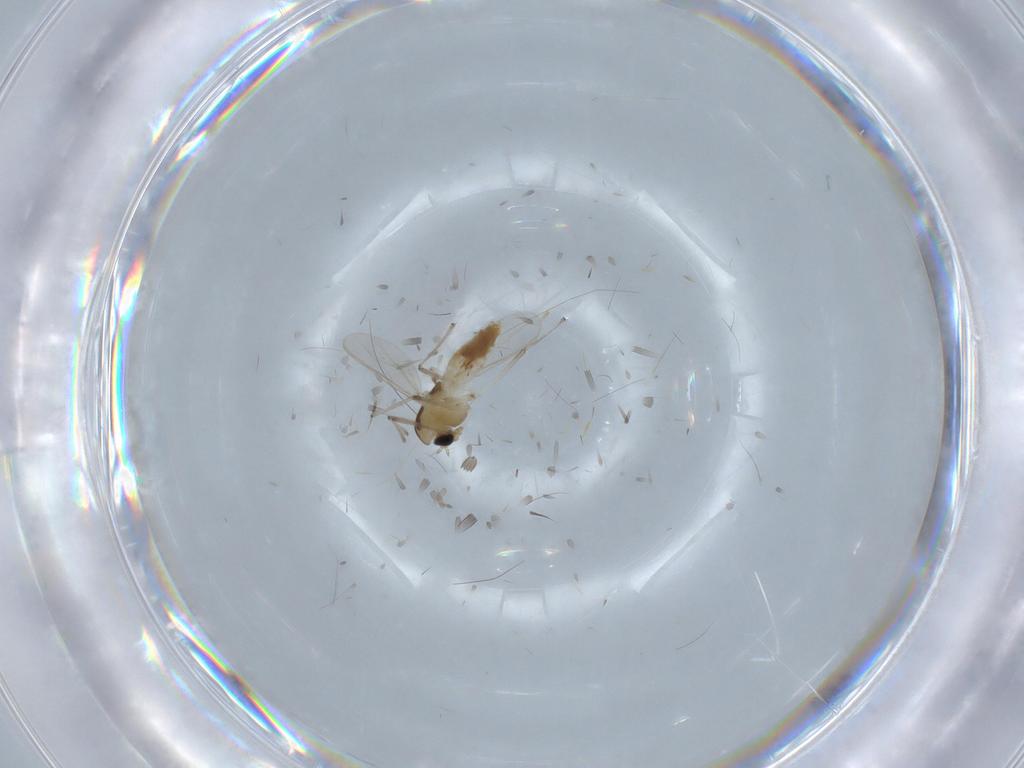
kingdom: Animalia
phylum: Arthropoda
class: Insecta
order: Diptera
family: Chironomidae
